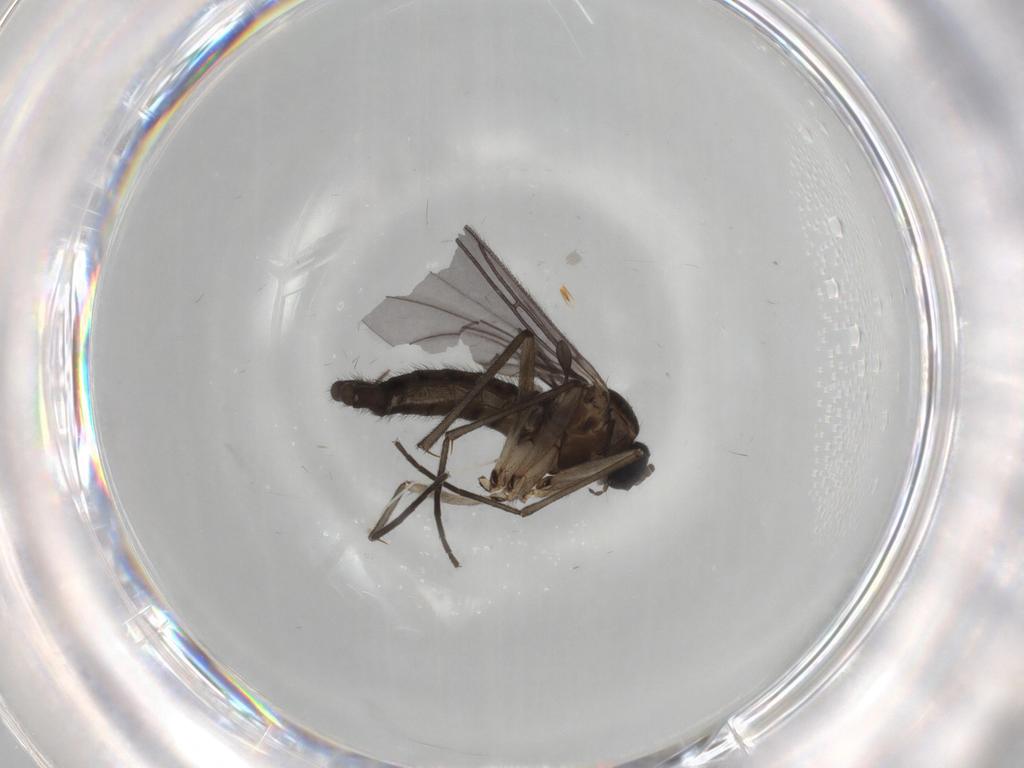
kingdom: Animalia
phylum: Arthropoda
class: Insecta
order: Diptera
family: Sciaridae
